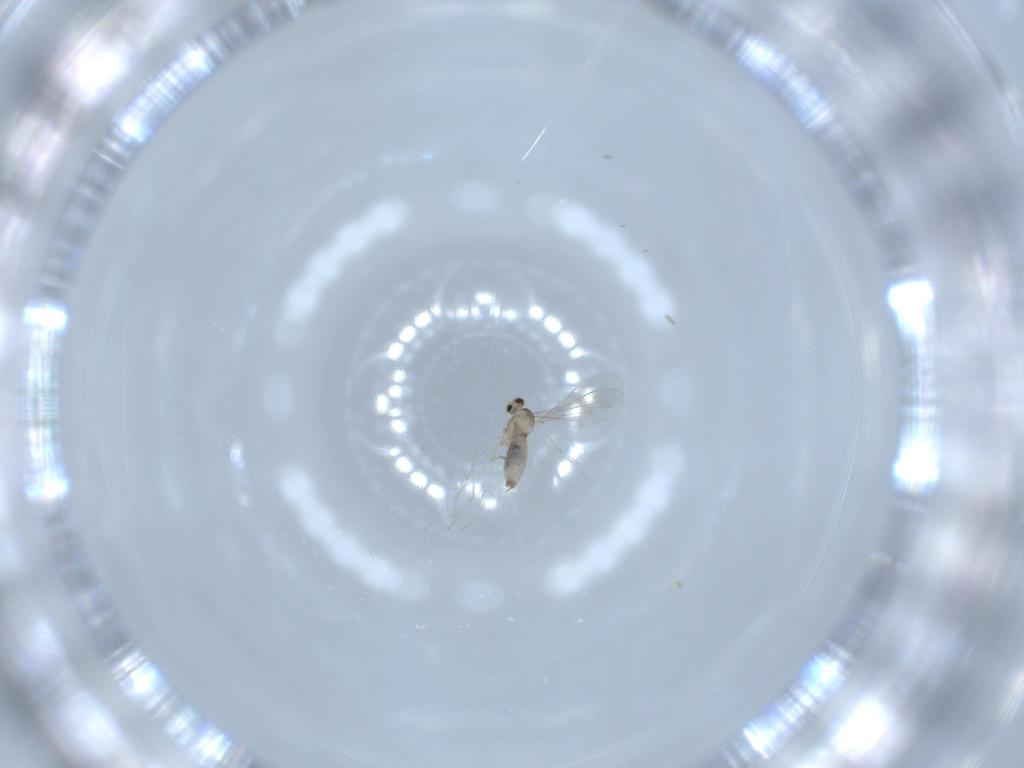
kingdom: Animalia
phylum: Arthropoda
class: Insecta
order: Diptera
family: Cecidomyiidae
